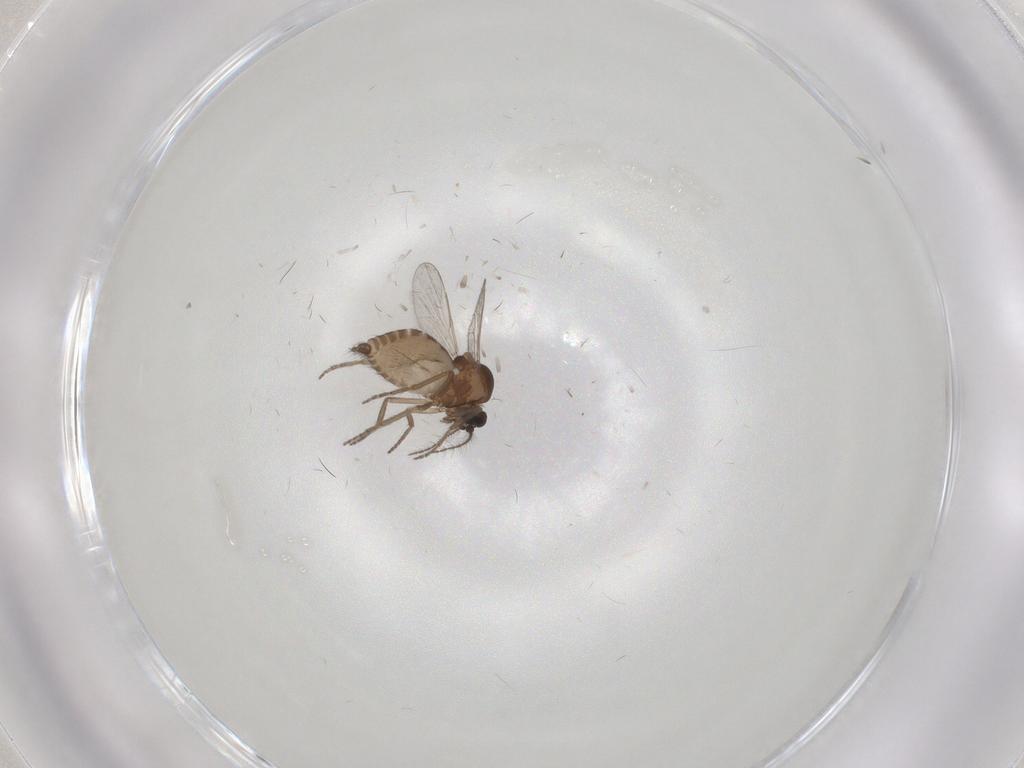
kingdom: Animalia
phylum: Arthropoda
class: Insecta
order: Diptera
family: Ceratopogonidae
